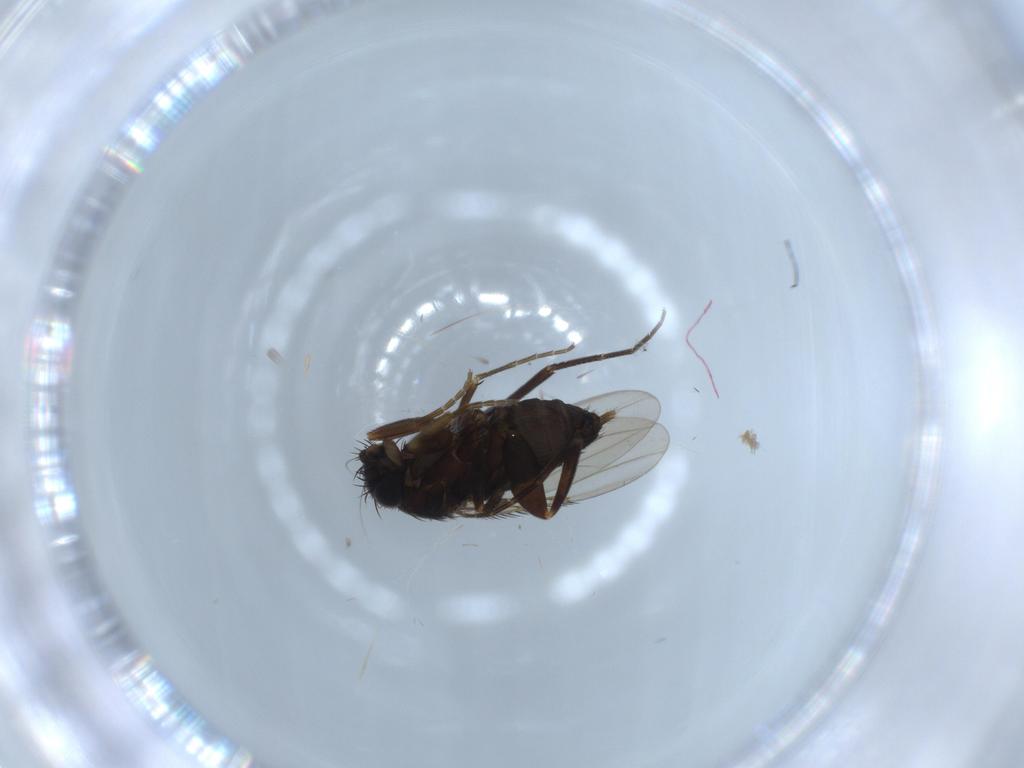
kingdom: Animalia
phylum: Arthropoda
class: Insecta
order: Diptera
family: Phoridae
